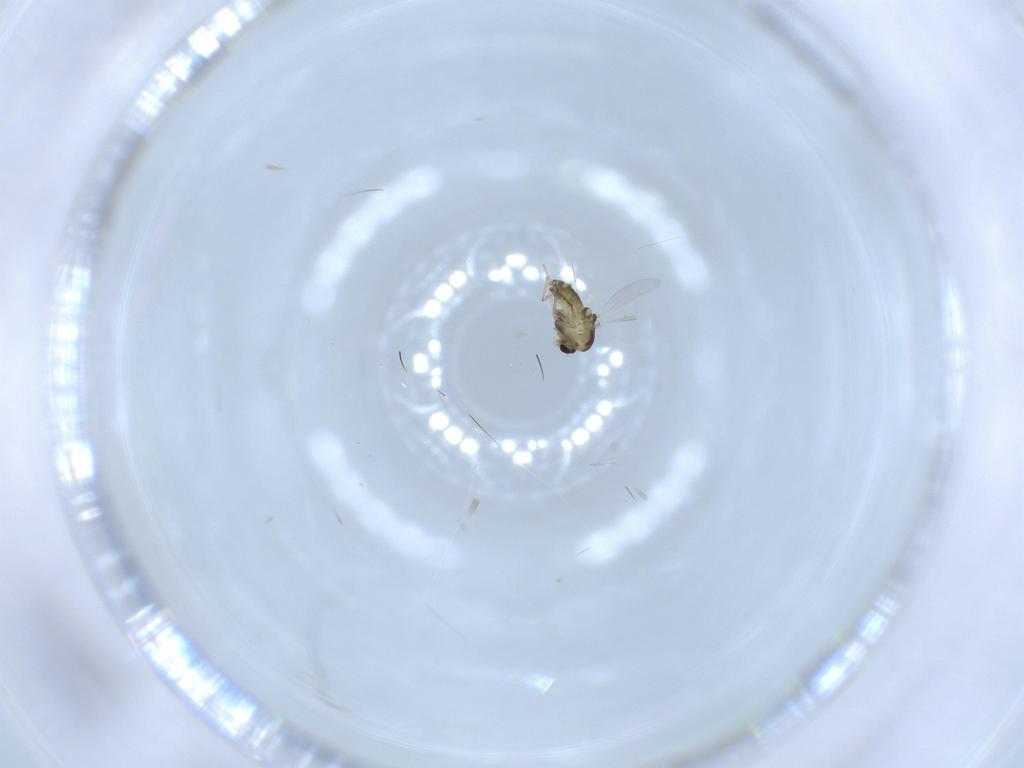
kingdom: Animalia
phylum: Arthropoda
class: Insecta
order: Diptera
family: Chironomidae
